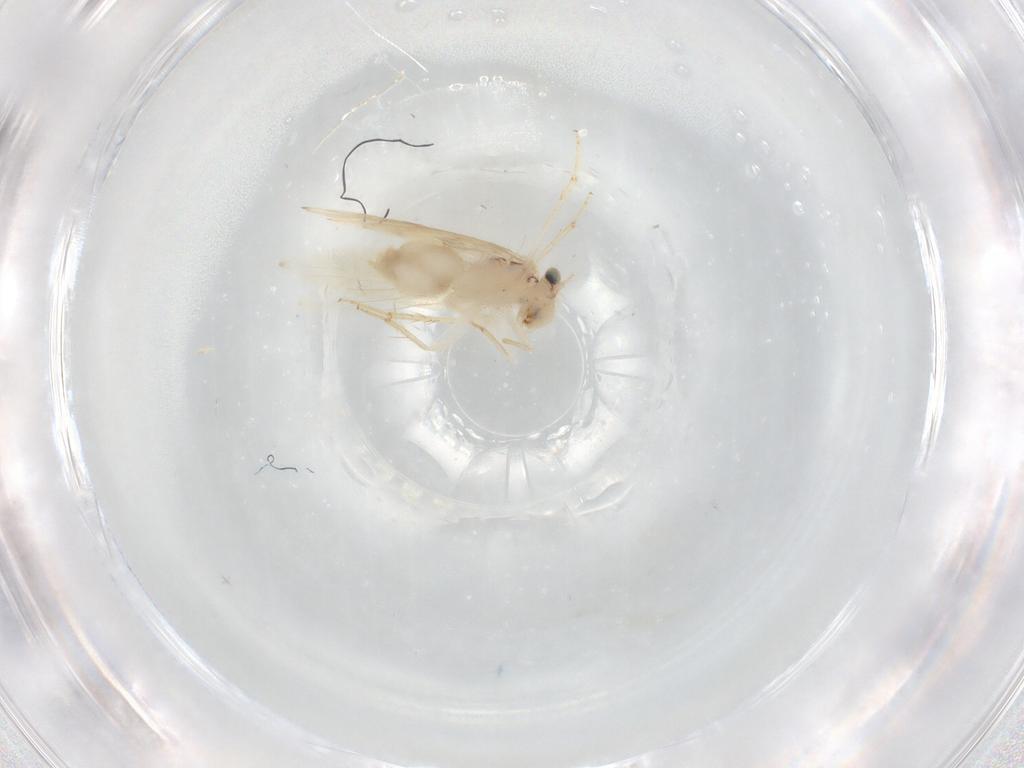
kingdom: Animalia
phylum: Arthropoda
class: Insecta
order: Psocodea
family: Lepidopsocidae
